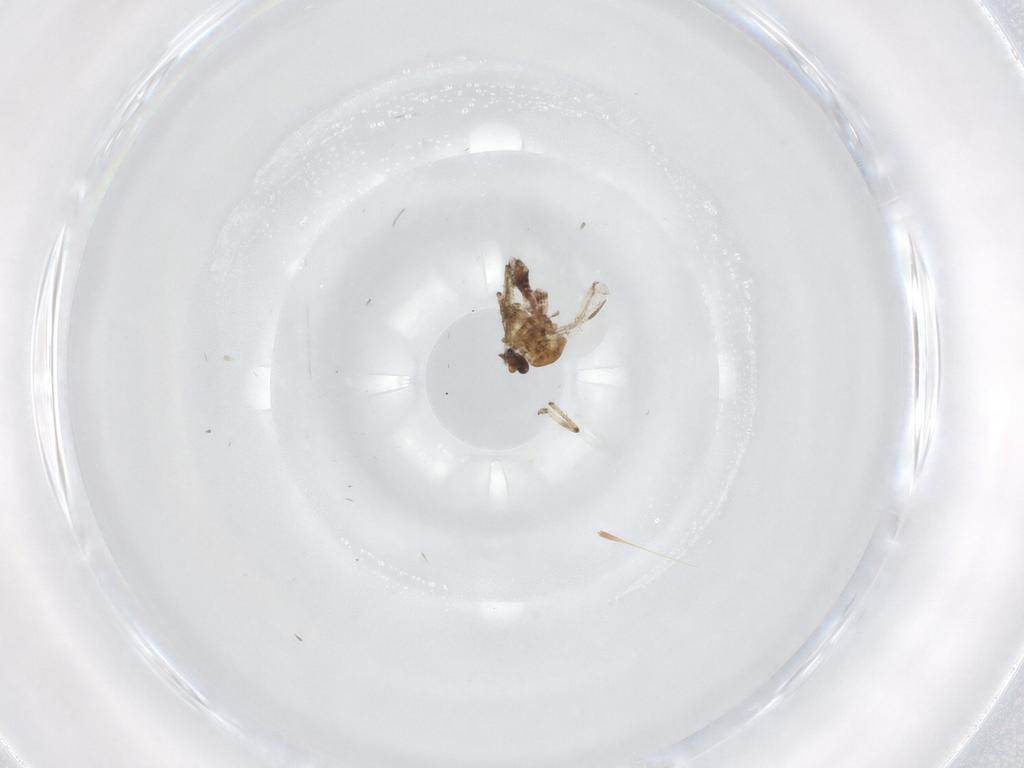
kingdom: Animalia
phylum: Arthropoda
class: Insecta
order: Diptera
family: Ceratopogonidae
